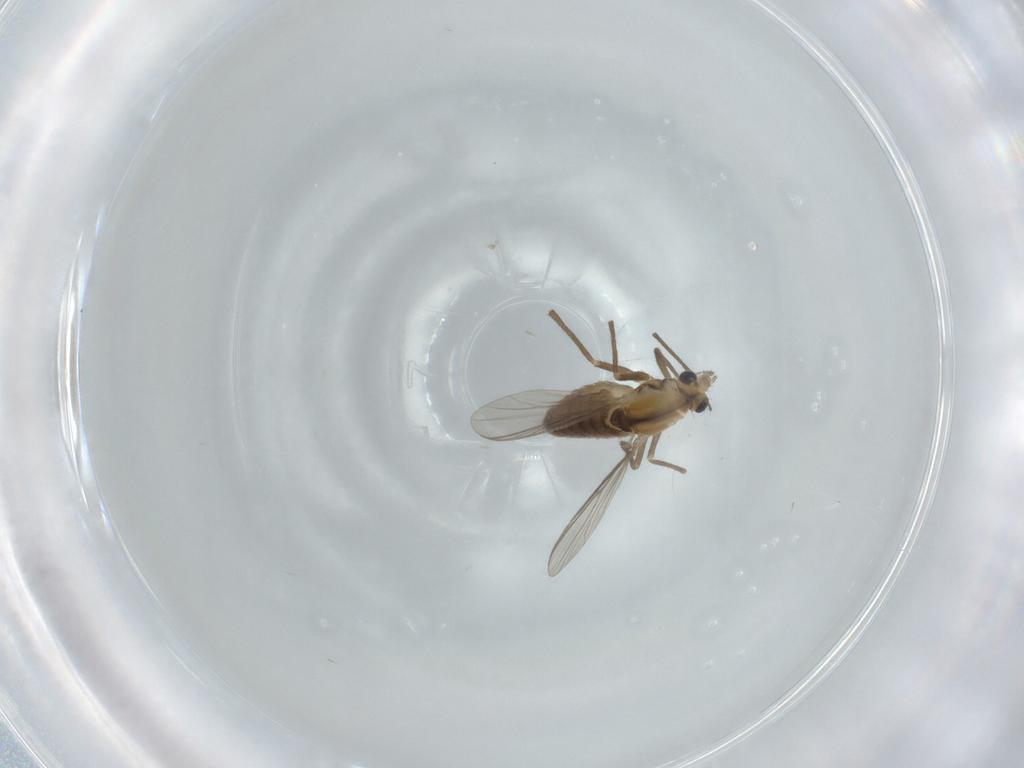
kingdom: Animalia
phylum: Arthropoda
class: Insecta
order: Diptera
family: Chironomidae
